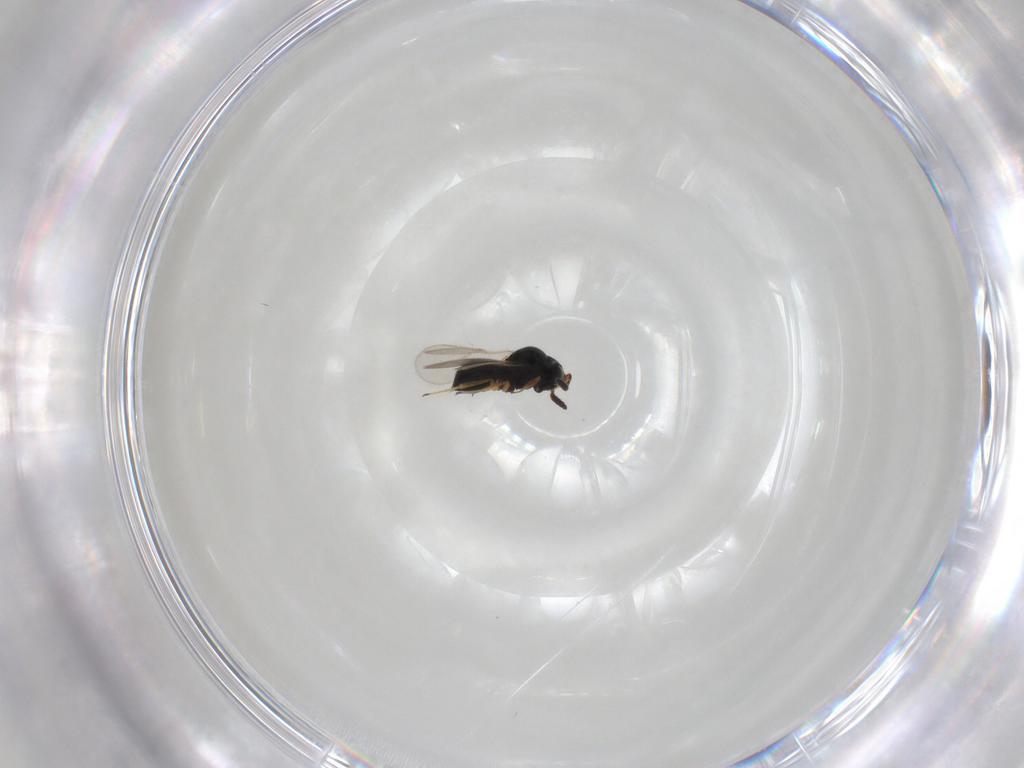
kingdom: Animalia
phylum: Arthropoda
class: Insecta
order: Hymenoptera
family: Scelionidae
